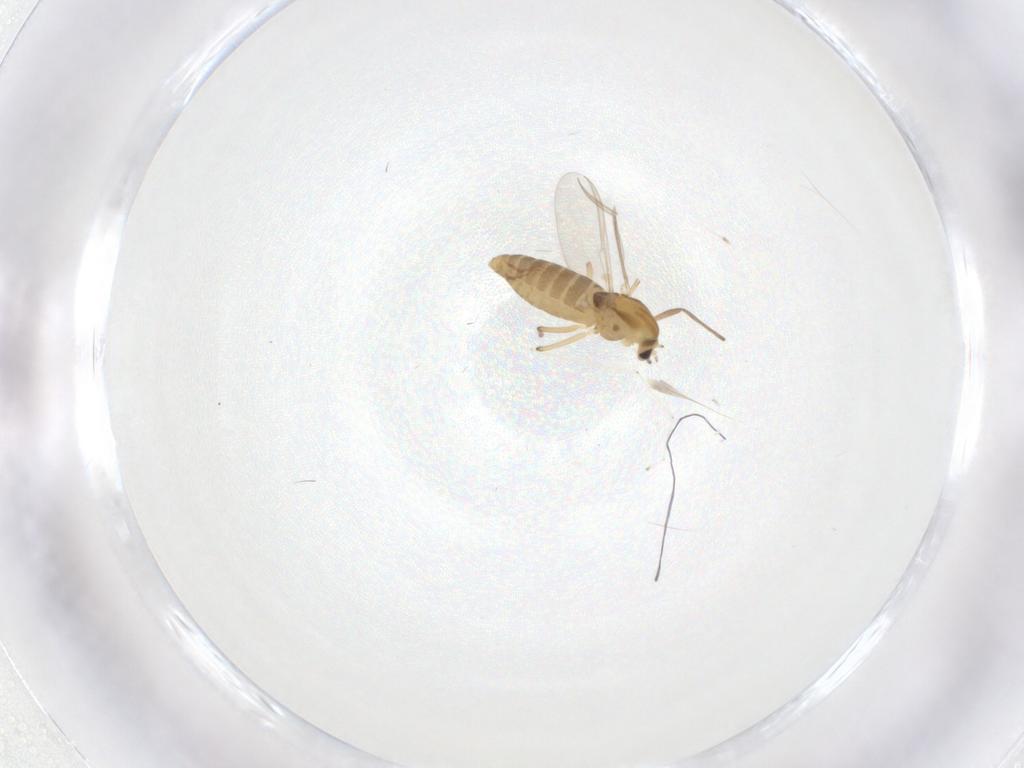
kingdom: Animalia
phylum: Arthropoda
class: Insecta
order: Diptera
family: Chironomidae
